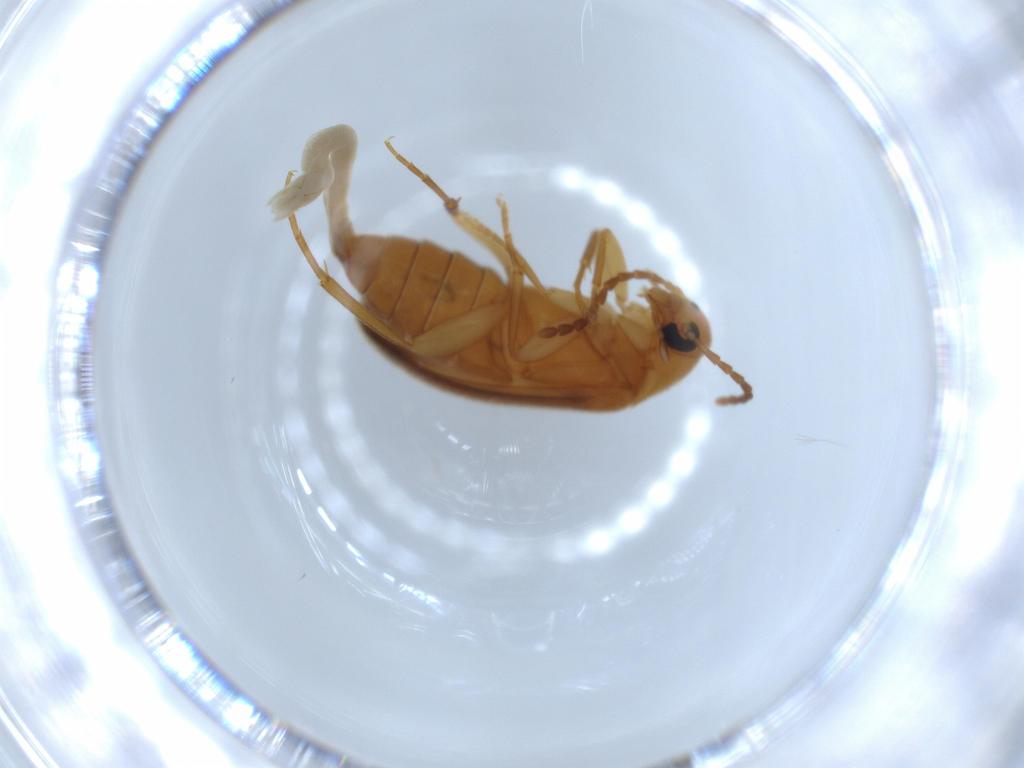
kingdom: Animalia
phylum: Arthropoda
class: Insecta
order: Coleoptera
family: Scraptiidae
